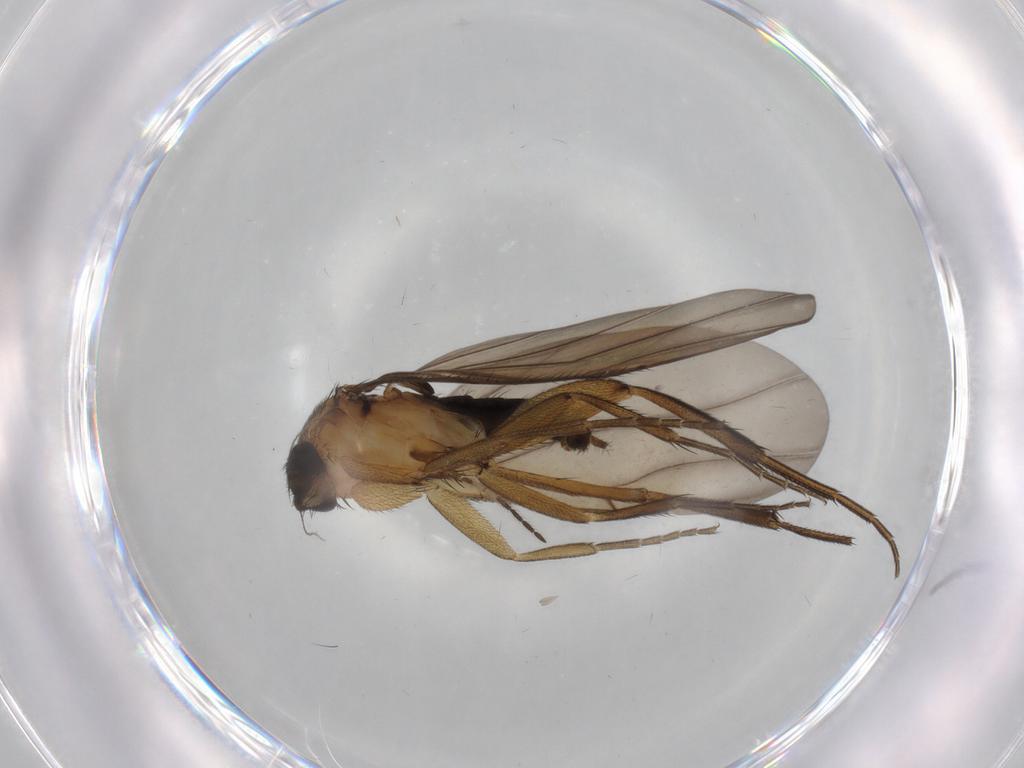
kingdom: Animalia
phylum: Arthropoda
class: Insecta
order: Diptera
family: Phoridae
